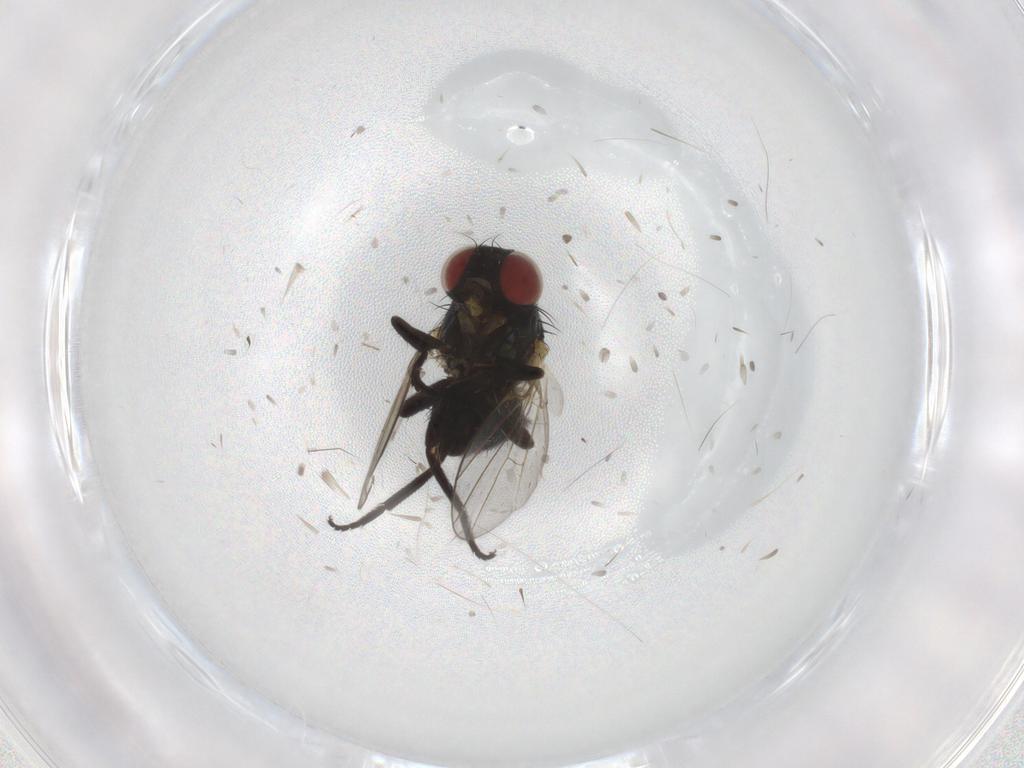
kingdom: Animalia
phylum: Arthropoda
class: Insecta
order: Diptera
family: Agromyzidae
